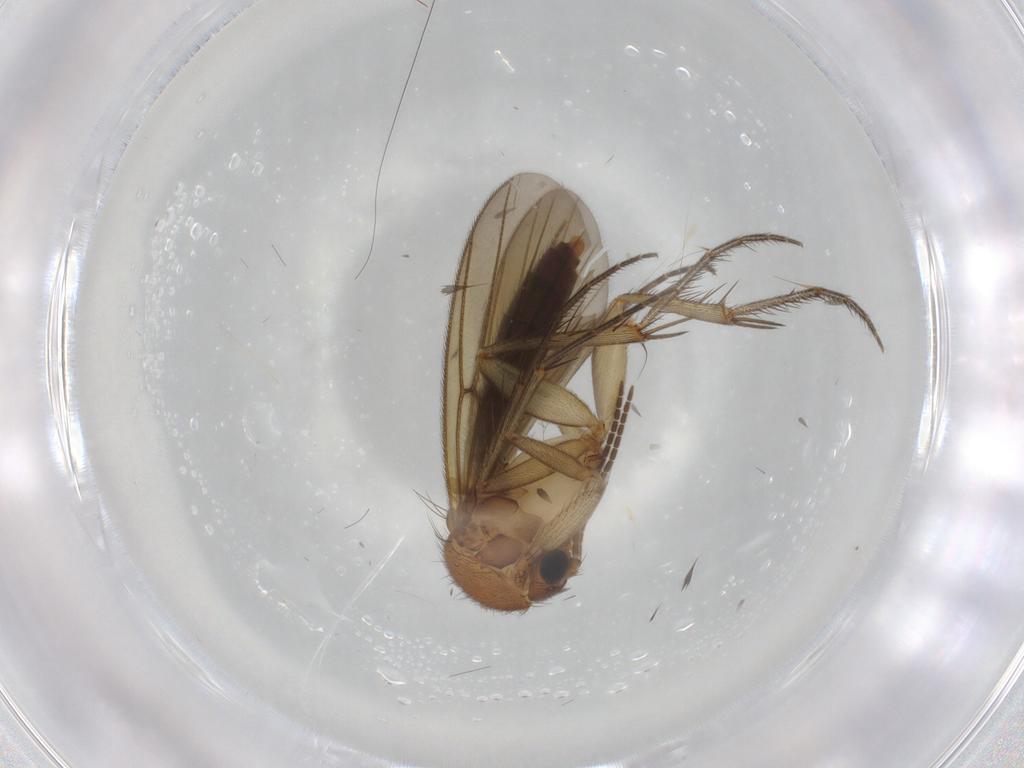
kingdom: Animalia
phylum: Arthropoda
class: Insecta
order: Diptera
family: Mycetophilidae
